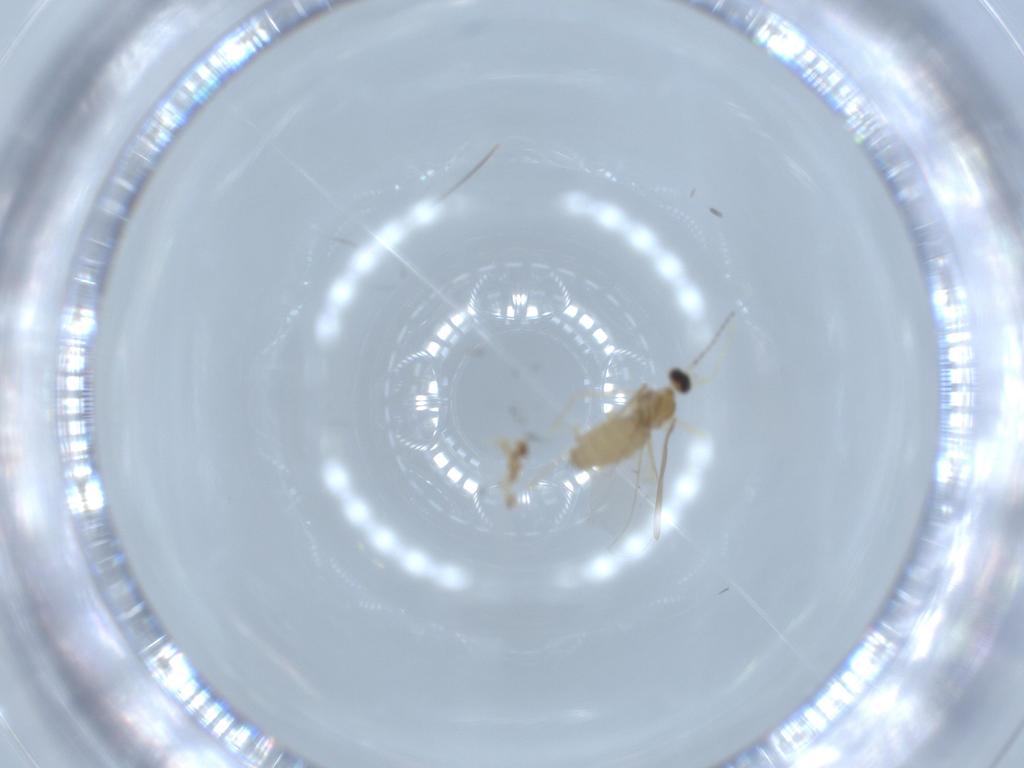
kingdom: Animalia
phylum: Arthropoda
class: Insecta
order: Diptera
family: Cecidomyiidae
